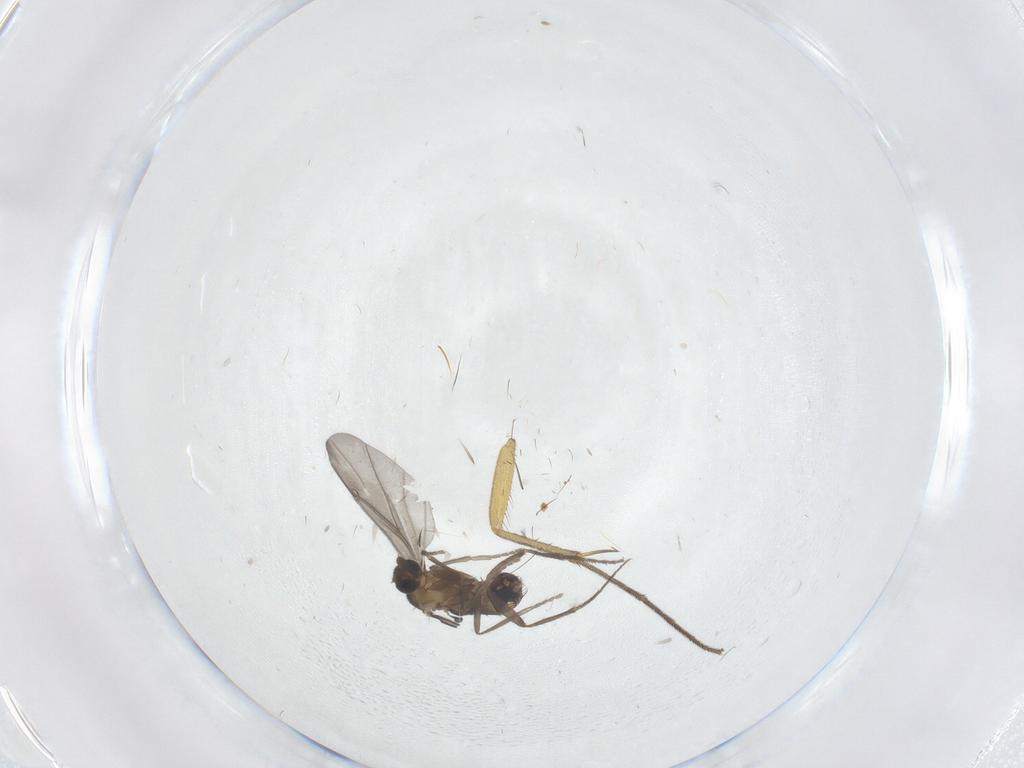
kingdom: Animalia
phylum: Arthropoda
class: Insecta
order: Diptera
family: Phoridae
